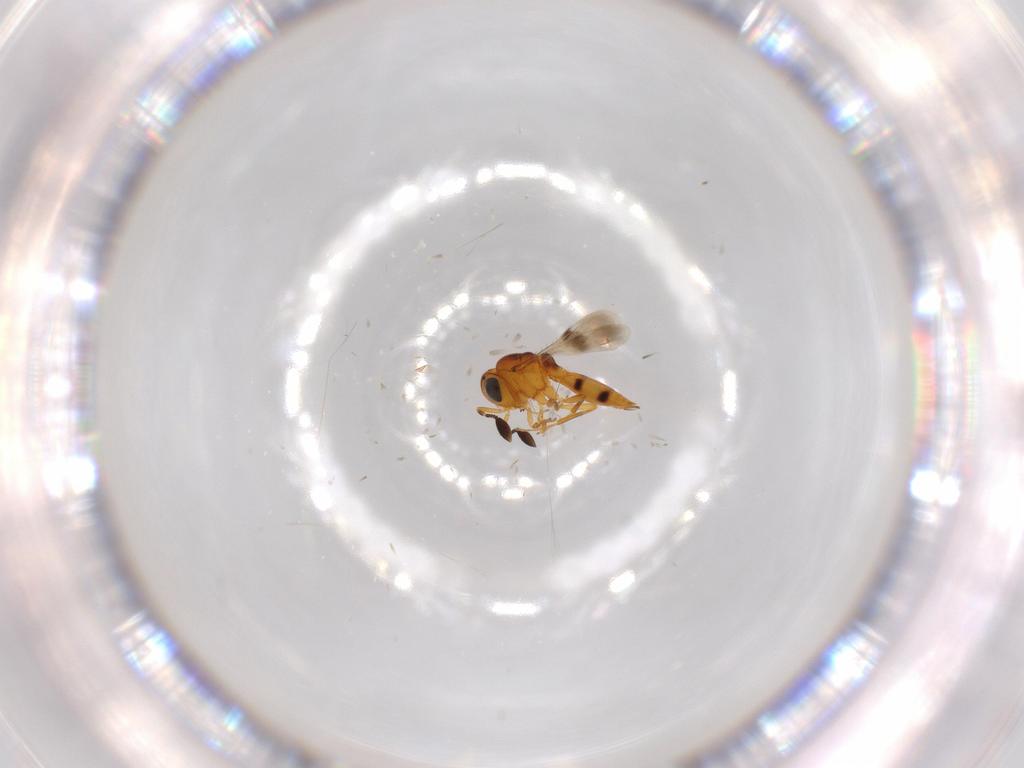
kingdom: Animalia
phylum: Arthropoda
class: Insecta
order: Hymenoptera
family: Scelionidae
